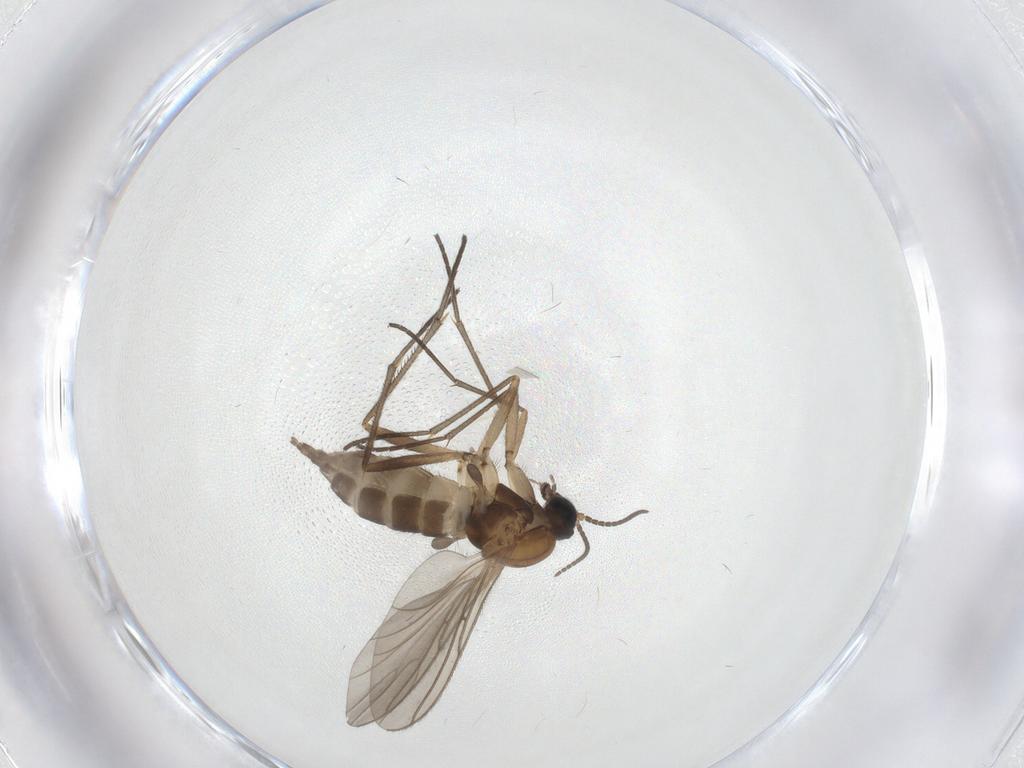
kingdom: Animalia
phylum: Arthropoda
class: Insecta
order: Diptera
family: Sciaridae
